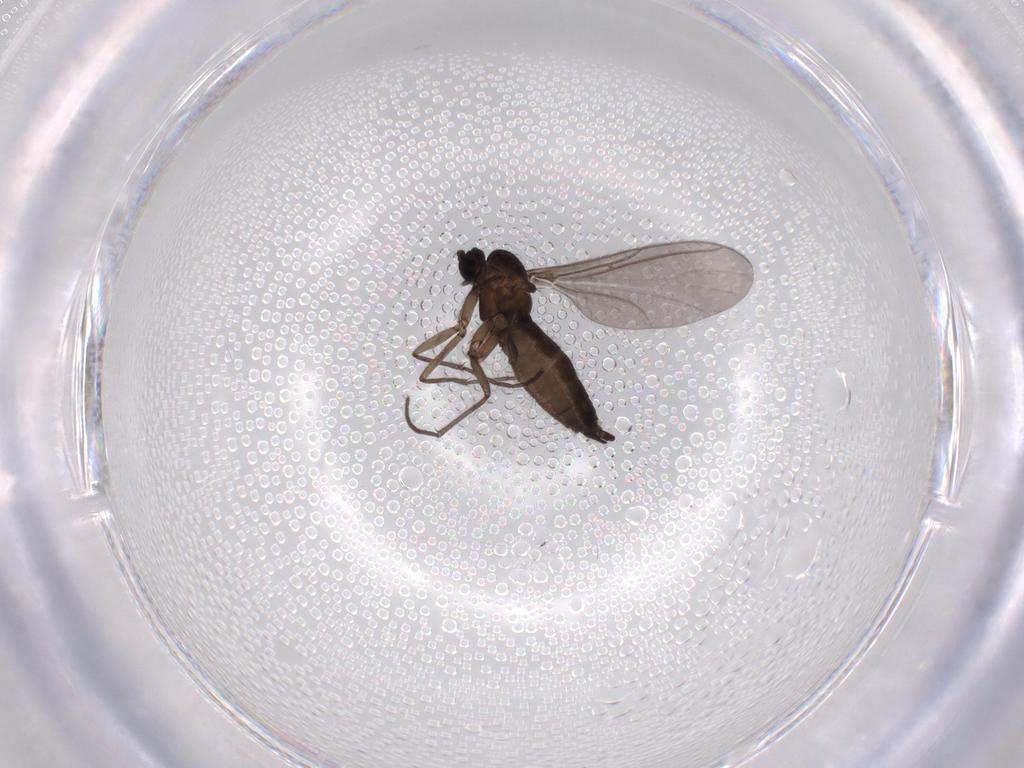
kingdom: Animalia
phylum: Arthropoda
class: Insecta
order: Diptera
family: Sciaridae
